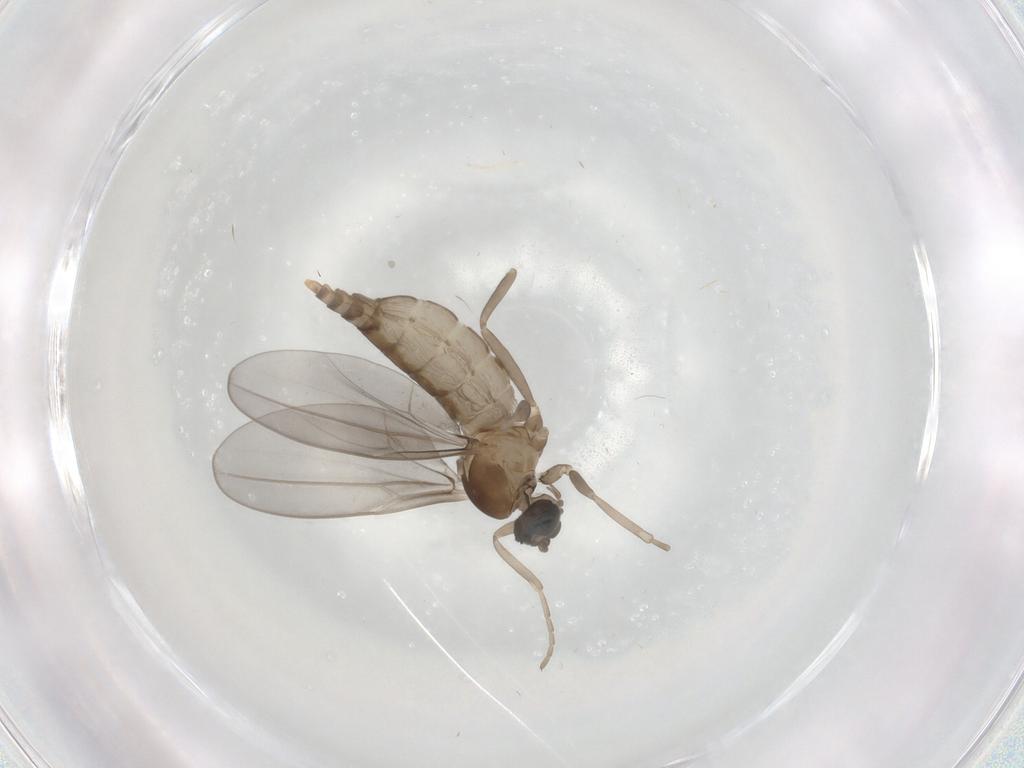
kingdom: Animalia
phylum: Arthropoda
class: Insecta
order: Diptera
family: Cecidomyiidae
